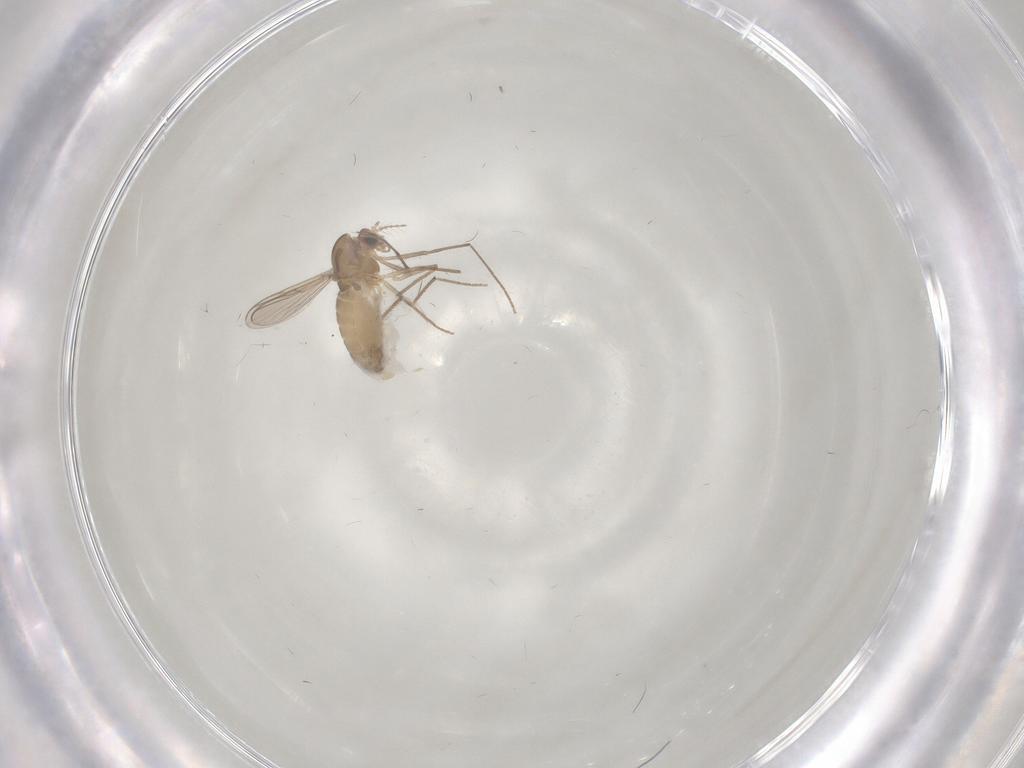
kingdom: Animalia
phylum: Arthropoda
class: Insecta
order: Diptera
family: Chironomidae
